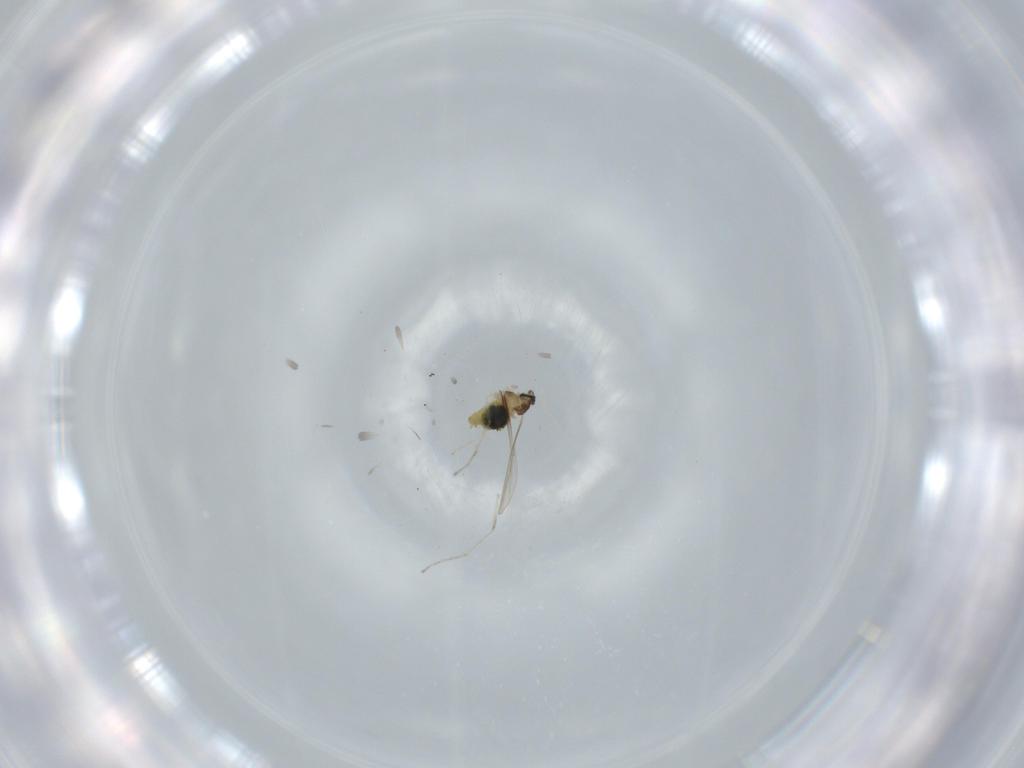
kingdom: Animalia
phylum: Arthropoda
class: Insecta
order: Diptera
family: Cecidomyiidae
